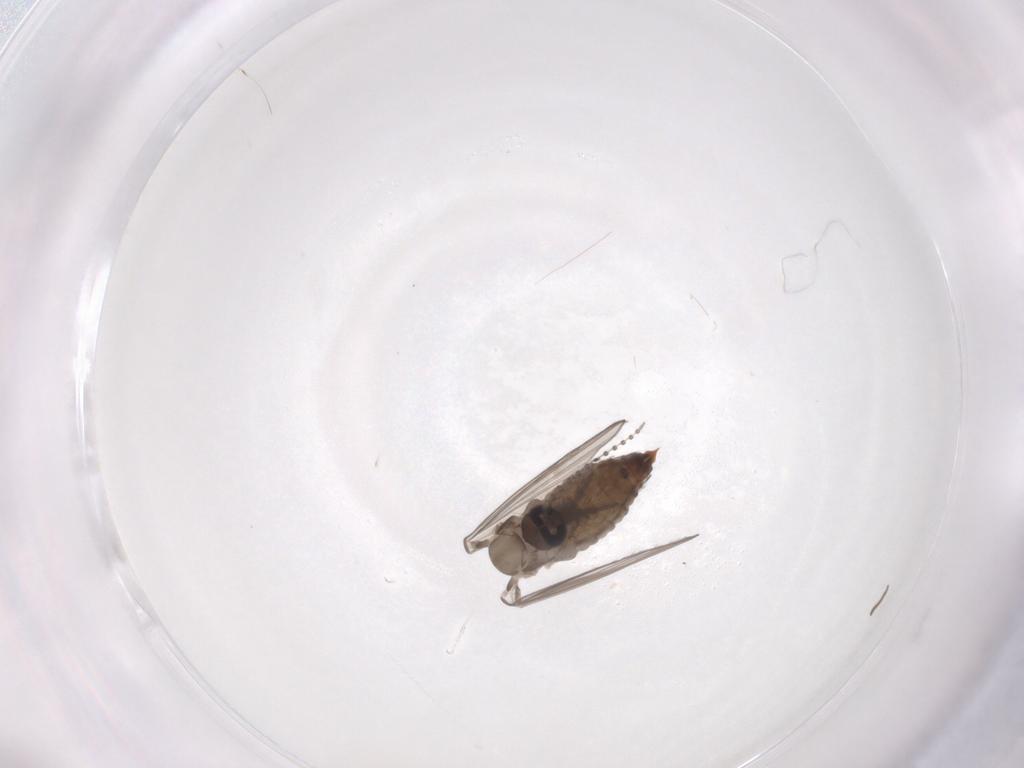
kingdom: Animalia
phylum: Arthropoda
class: Insecta
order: Diptera
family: Psychodidae
